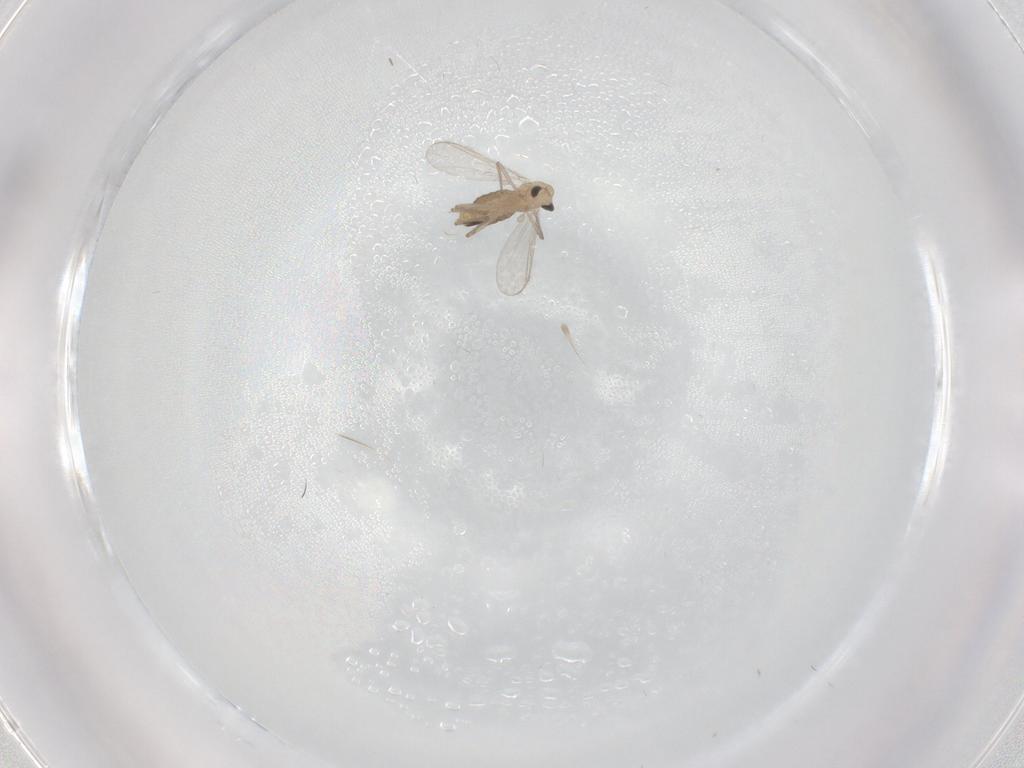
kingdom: Animalia
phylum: Arthropoda
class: Insecta
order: Diptera
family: Chironomidae
